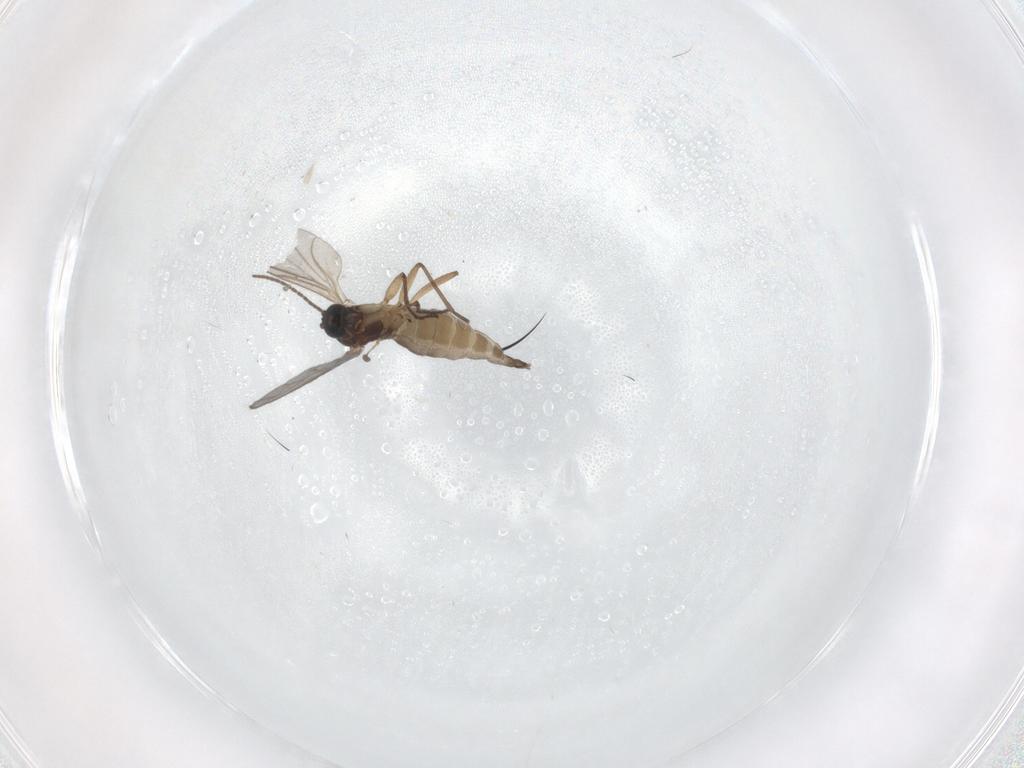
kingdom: Animalia
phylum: Arthropoda
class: Insecta
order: Diptera
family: Sciaridae
